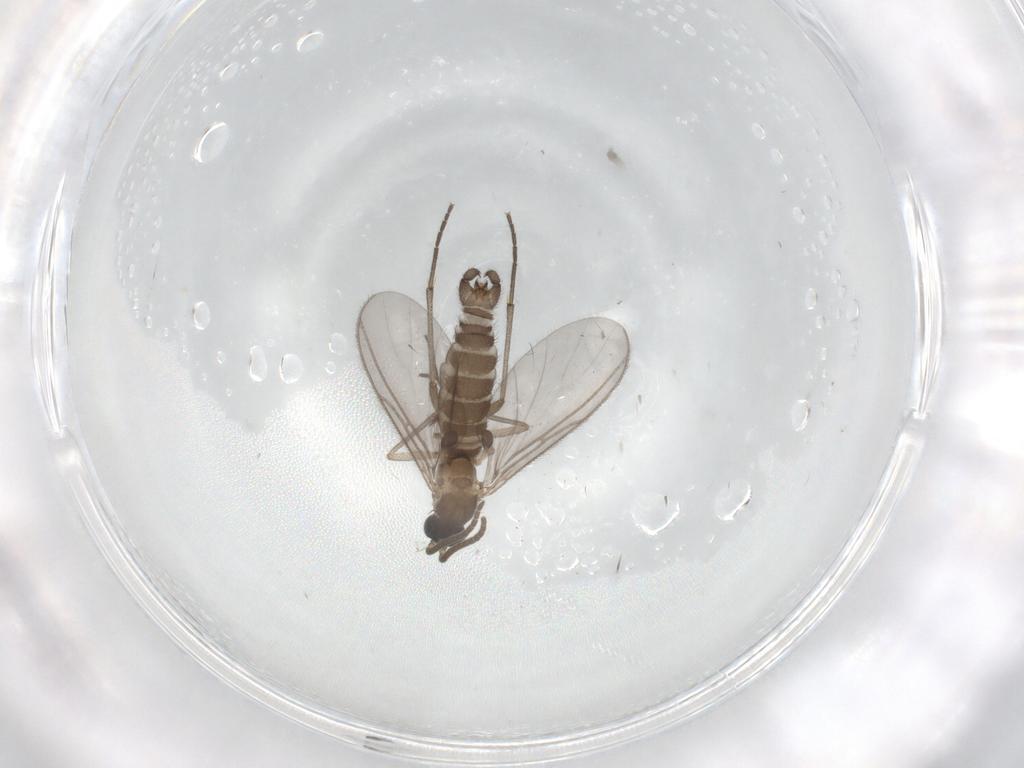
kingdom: Animalia
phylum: Arthropoda
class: Insecta
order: Diptera
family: Sciaridae
